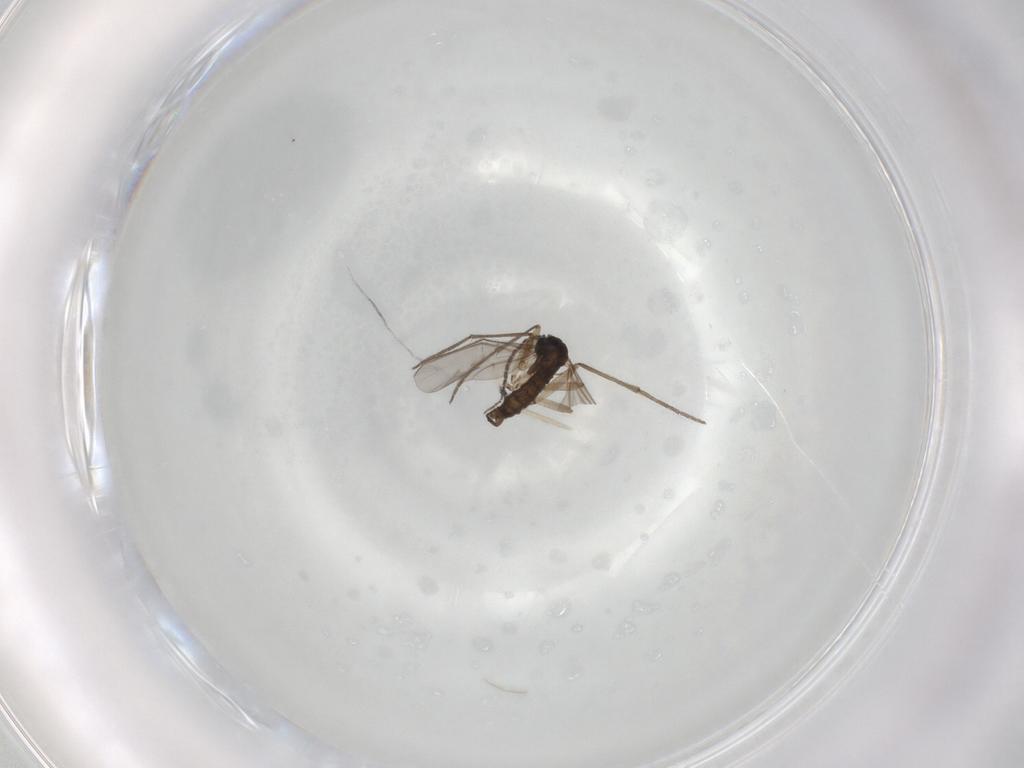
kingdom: Animalia
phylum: Arthropoda
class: Insecta
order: Diptera
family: Sciaridae
